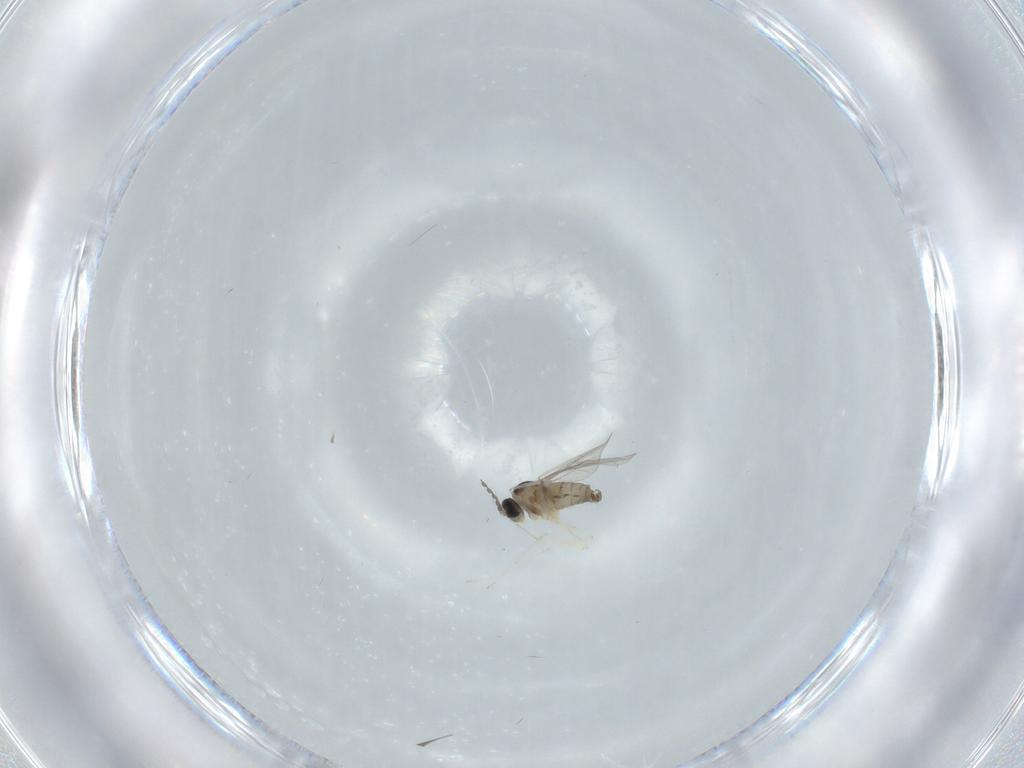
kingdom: Animalia
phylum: Arthropoda
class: Insecta
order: Diptera
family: Cecidomyiidae
